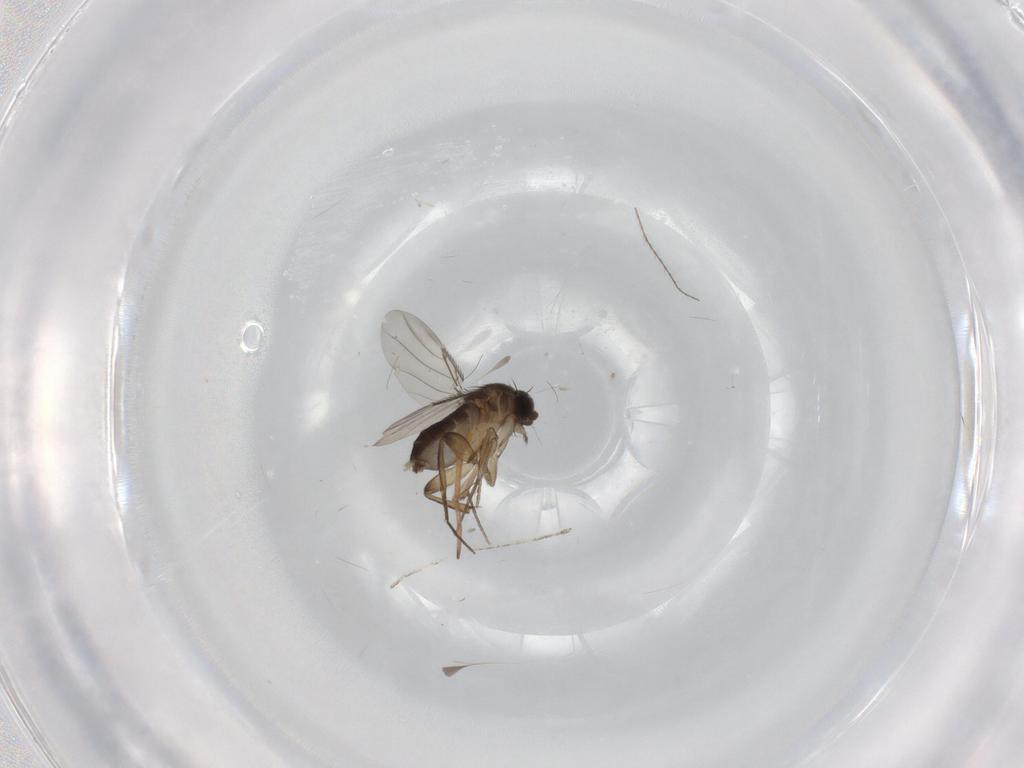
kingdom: Animalia
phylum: Arthropoda
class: Insecta
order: Diptera
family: Phoridae
